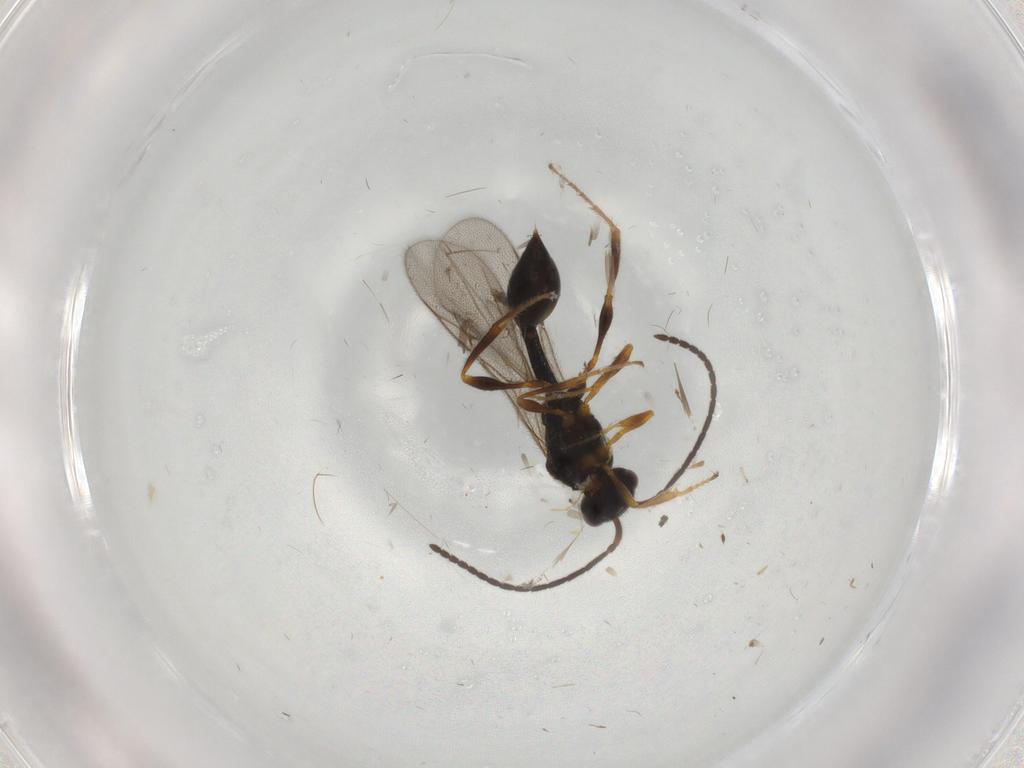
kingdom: Animalia
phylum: Arthropoda
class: Insecta
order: Hymenoptera
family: Diapriidae
